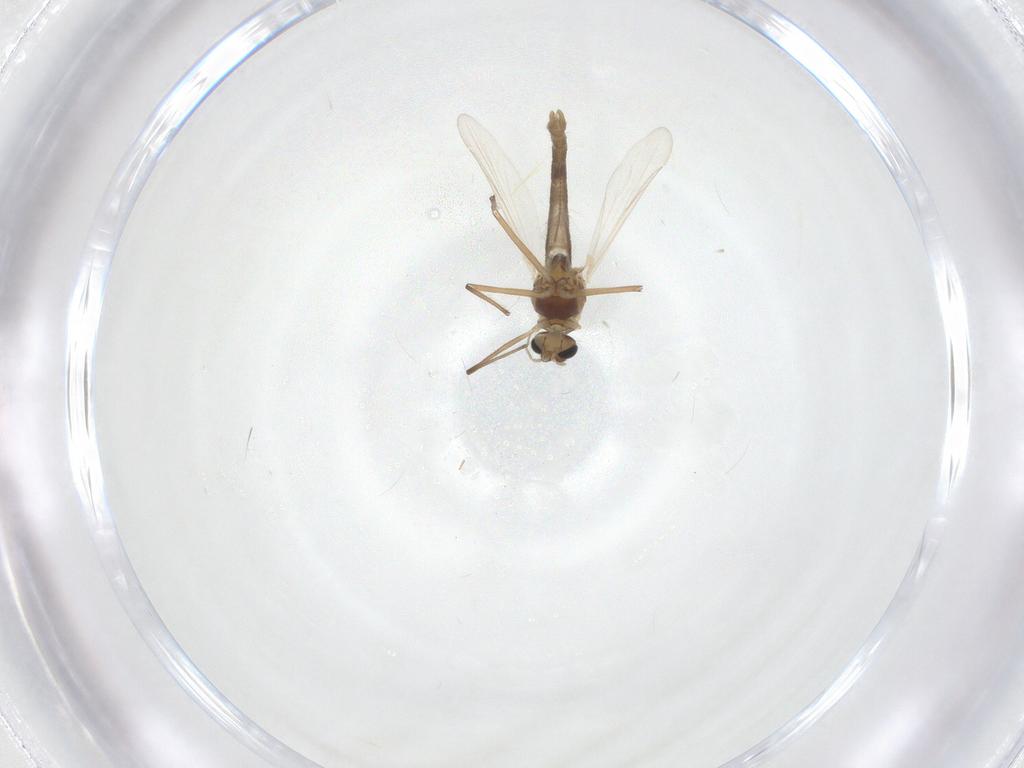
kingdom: Animalia
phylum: Arthropoda
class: Insecta
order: Diptera
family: Chironomidae
